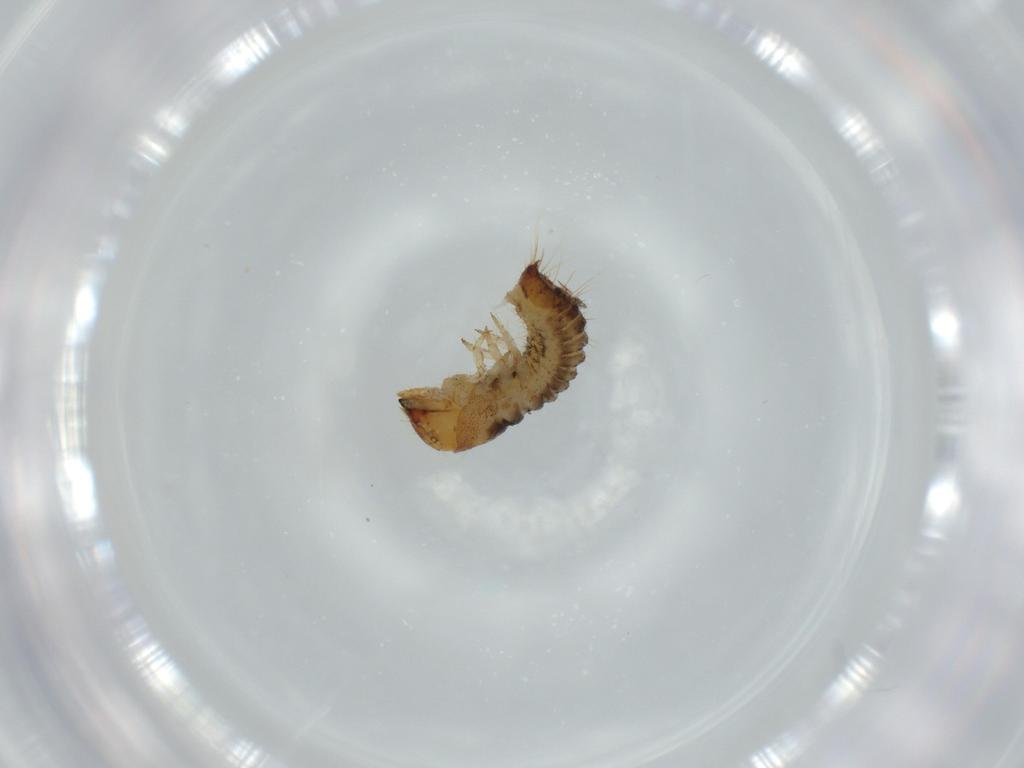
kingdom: Animalia
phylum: Arthropoda
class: Insecta
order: Coleoptera
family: Lymexylidae
